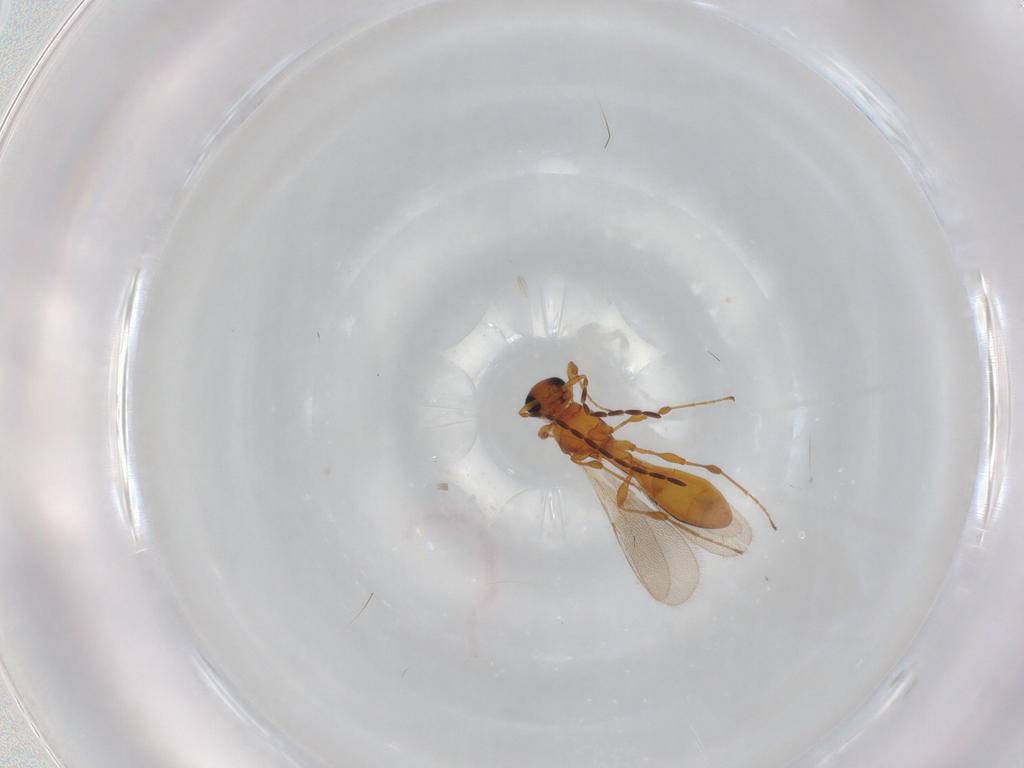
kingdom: Animalia
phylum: Arthropoda
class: Insecta
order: Hymenoptera
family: Scelionidae
